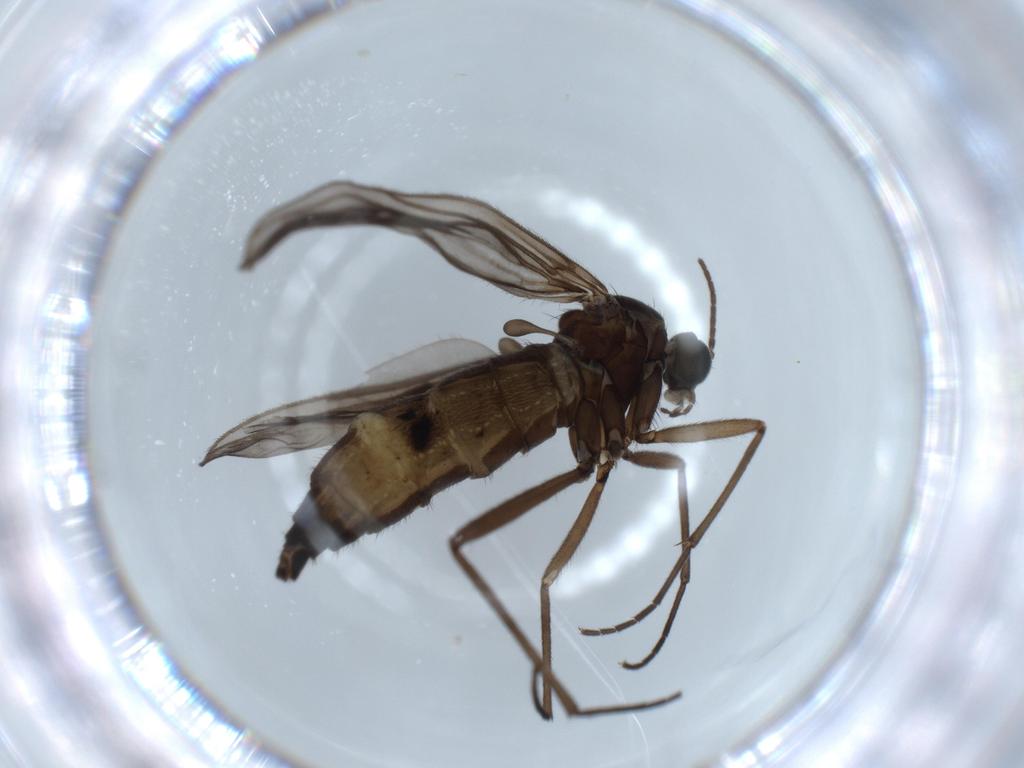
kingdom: Animalia
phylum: Arthropoda
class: Insecta
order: Diptera
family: Sciaridae
